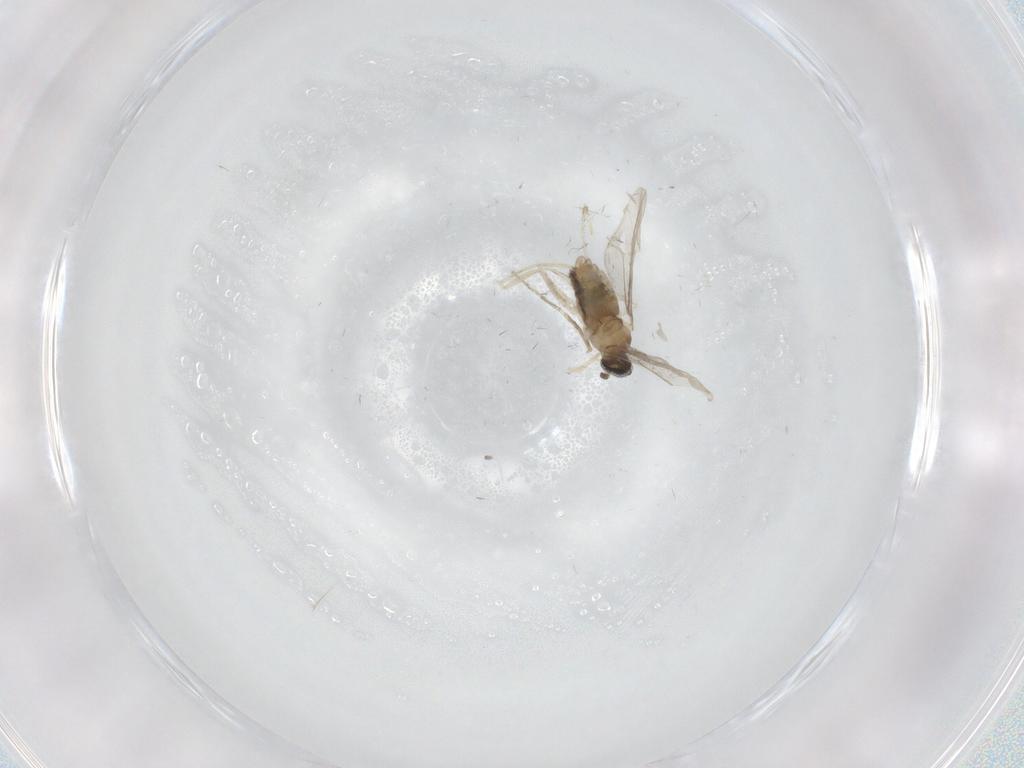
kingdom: Animalia
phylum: Arthropoda
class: Insecta
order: Diptera
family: Cecidomyiidae
